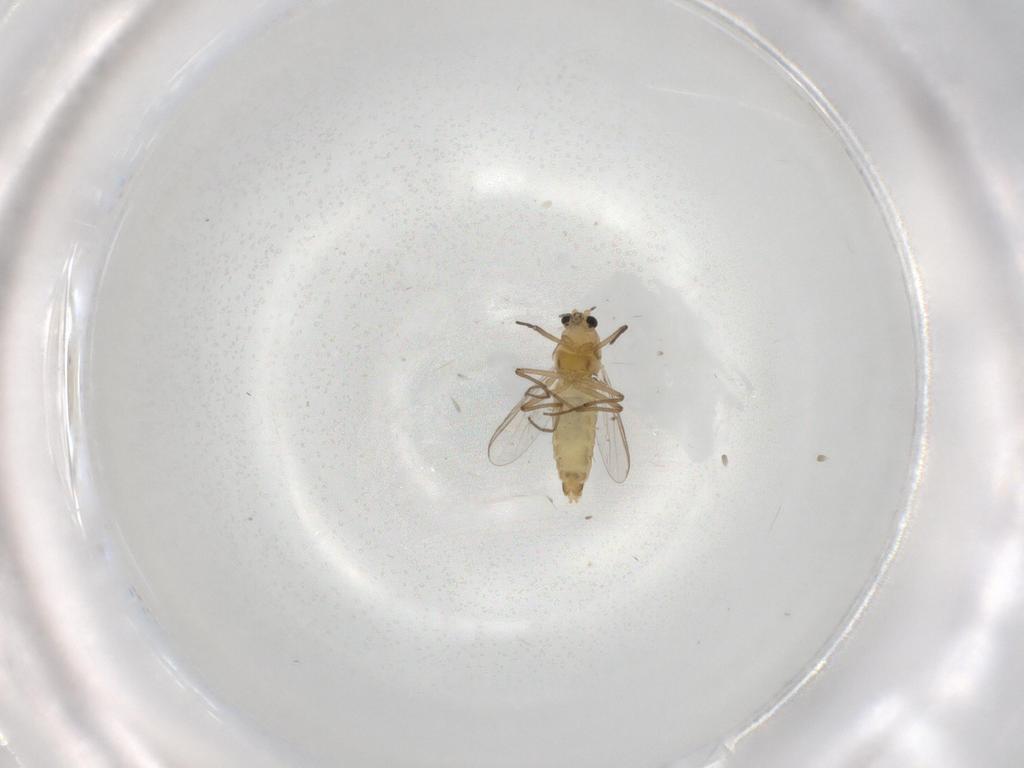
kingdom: Animalia
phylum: Arthropoda
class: Insecta
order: Diptera
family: Chironomidae
